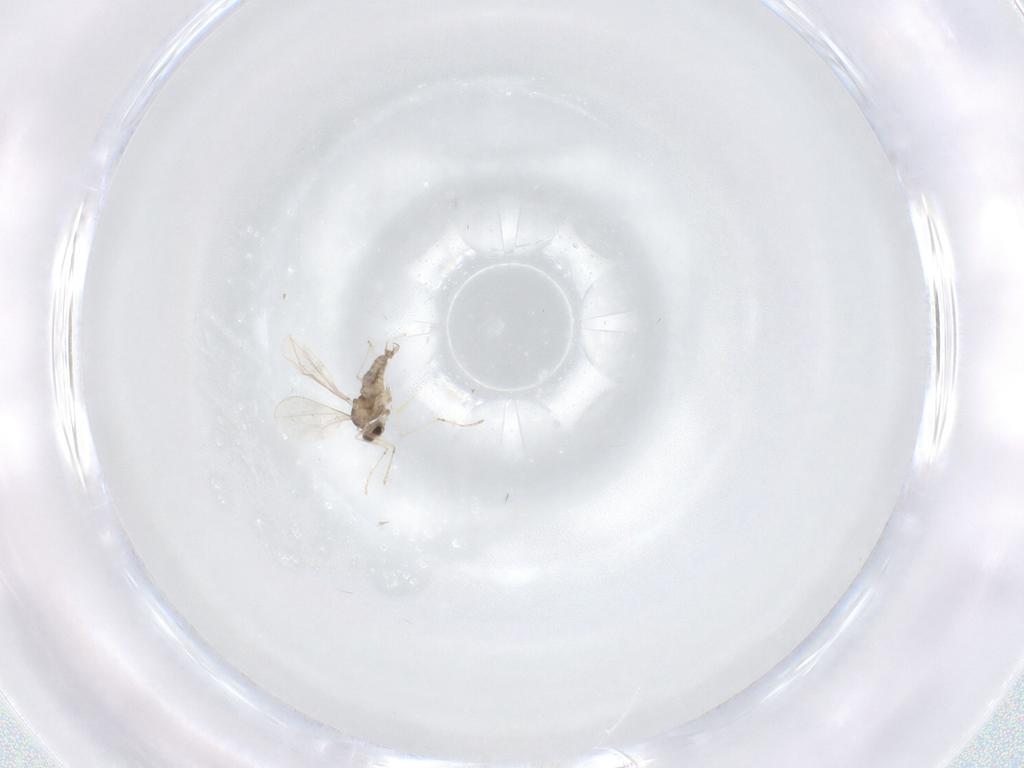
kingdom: Animalia
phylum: Arthropoda
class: Insecta
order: Diptera
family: Cecidomyiidae
